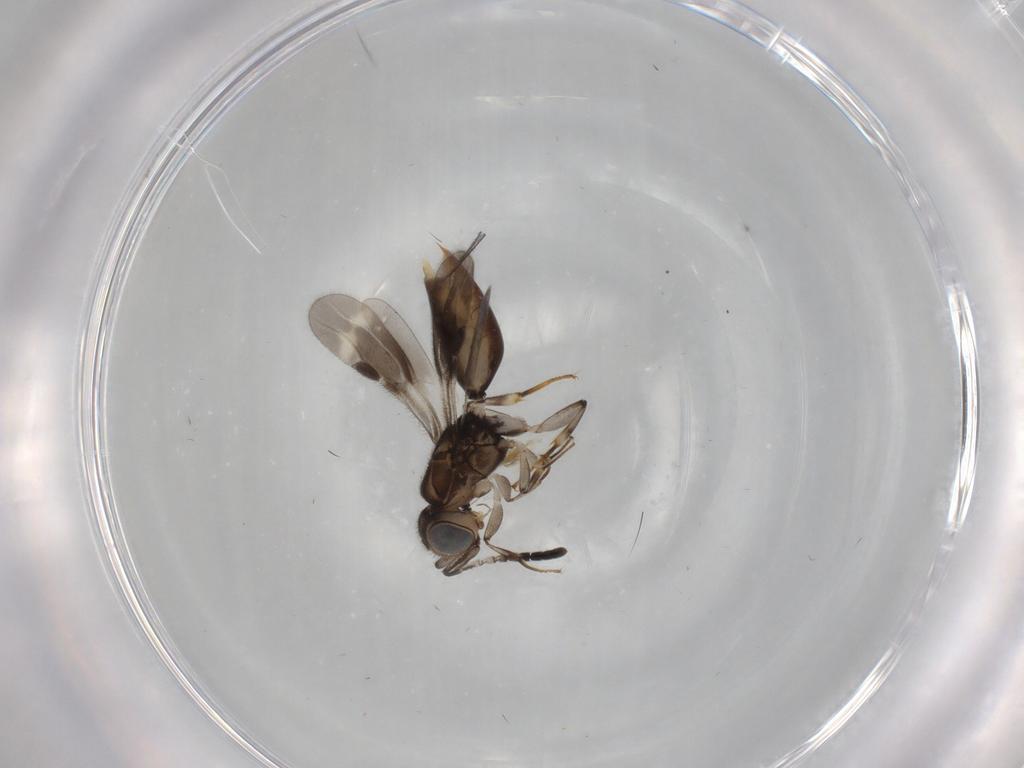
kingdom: Animalia
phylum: Arthropoda
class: Insecta
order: Hymenoptera
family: Megaspilidae
